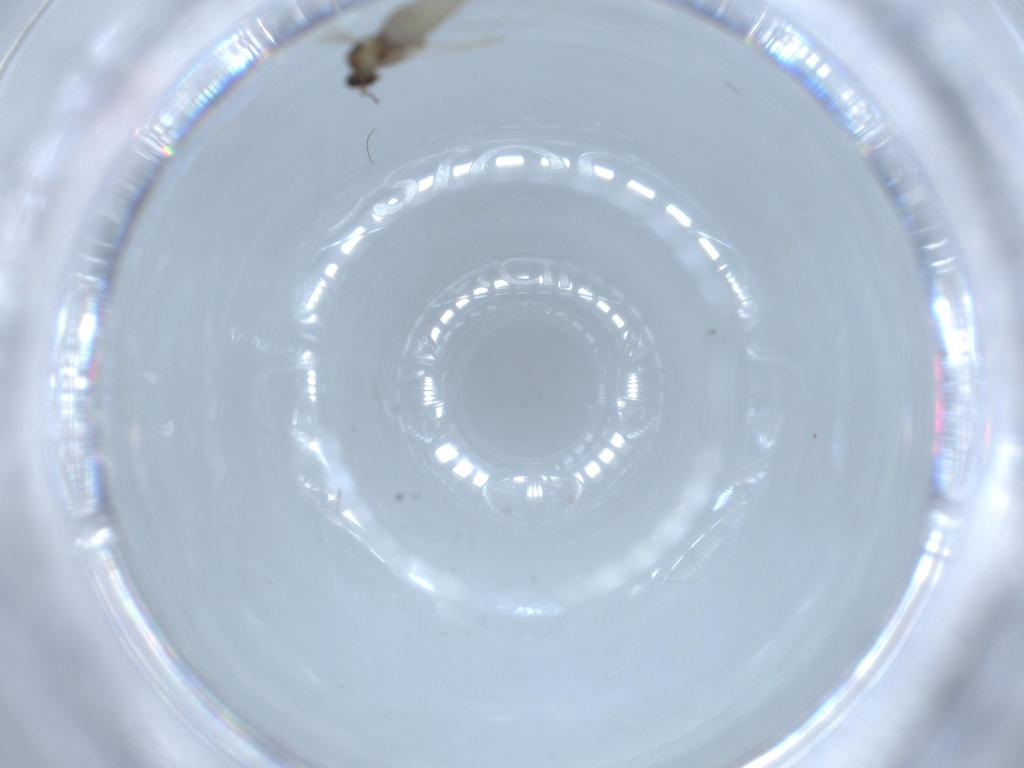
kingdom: Animalia
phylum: Arthropoda
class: Insecta
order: Diptera
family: Cecidomyiidae
